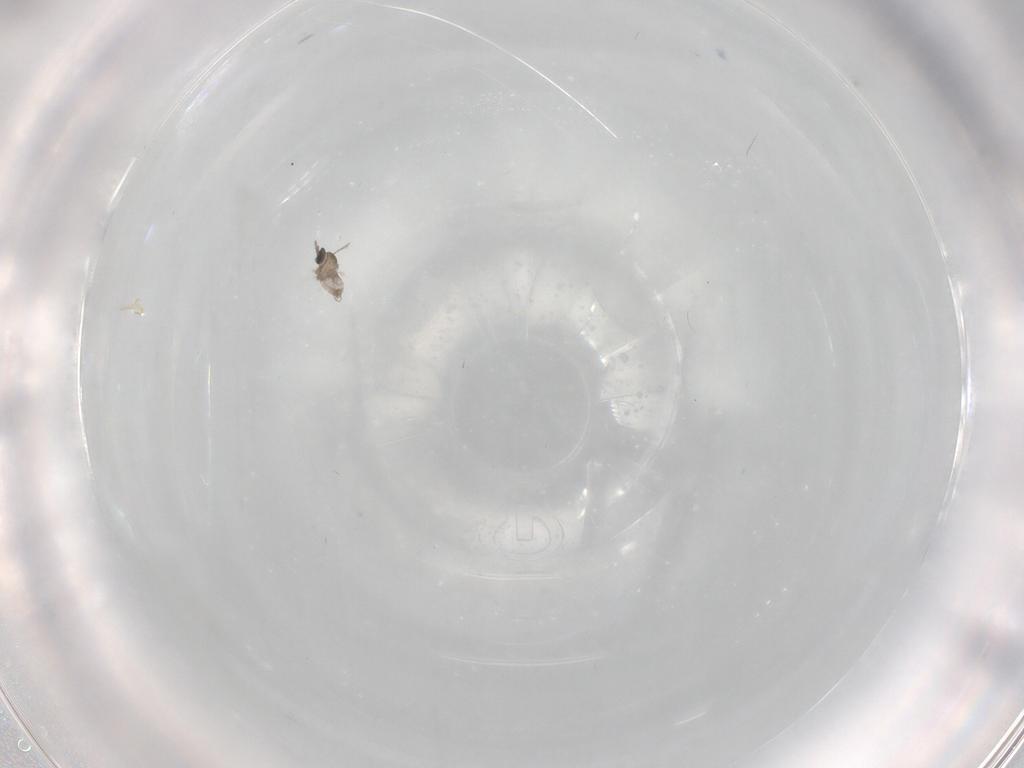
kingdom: Animalia
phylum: Arthropoda
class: Insecta
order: Diptera
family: Cecidomyiidae
